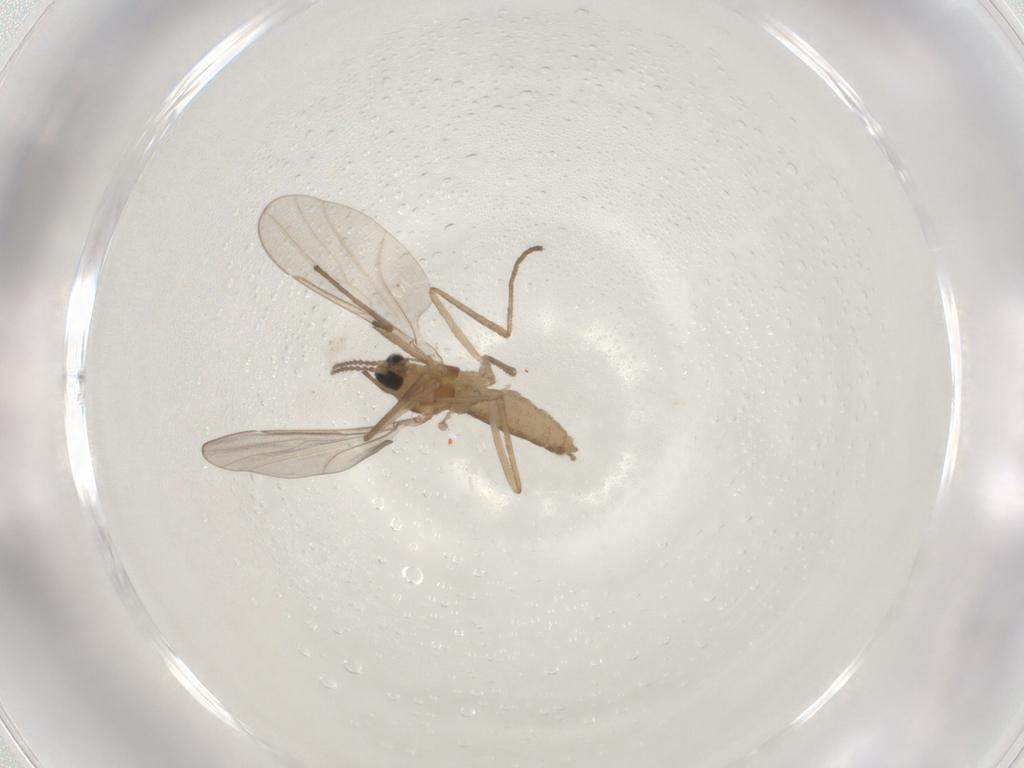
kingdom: Animalia
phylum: Arthropoda
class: Insecta
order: Diptera
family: Cecidomyiidae
